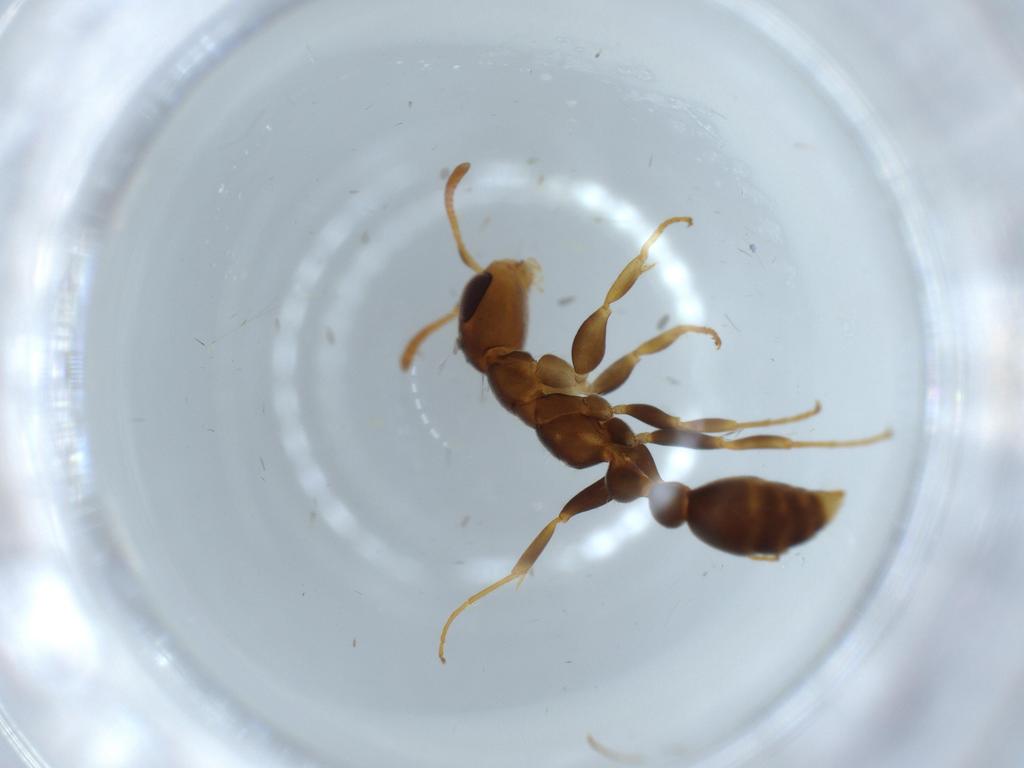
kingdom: Animalia
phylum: Arthropoda
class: Insecta
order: Hymenoptera
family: Formicidae
